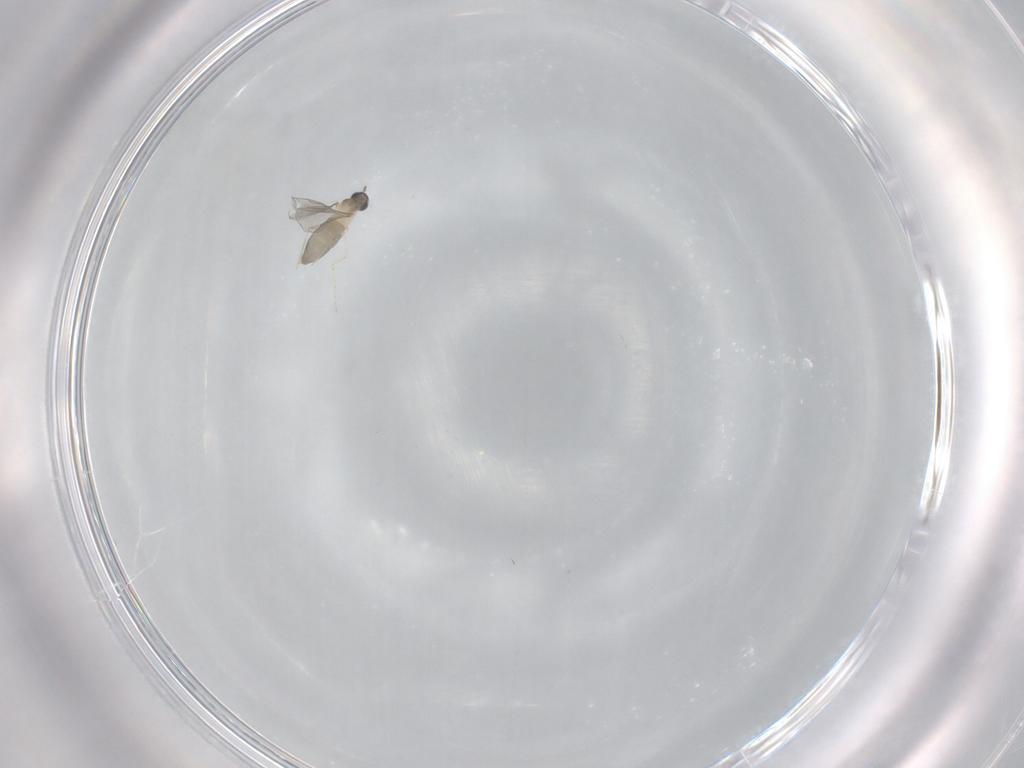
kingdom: Animalia
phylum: Arthropoda
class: Insecta
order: Diptera
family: Cecidomyiidae
